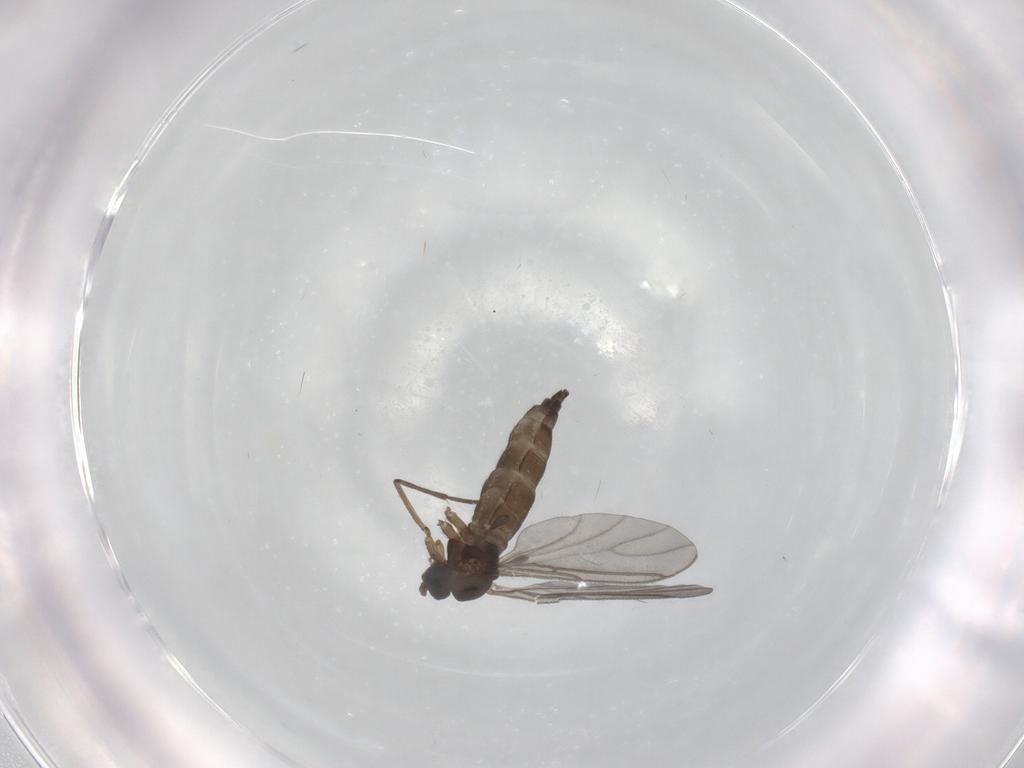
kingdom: Animalia
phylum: Arthropoda
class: Insecta
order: Diptera
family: Sciaridae
